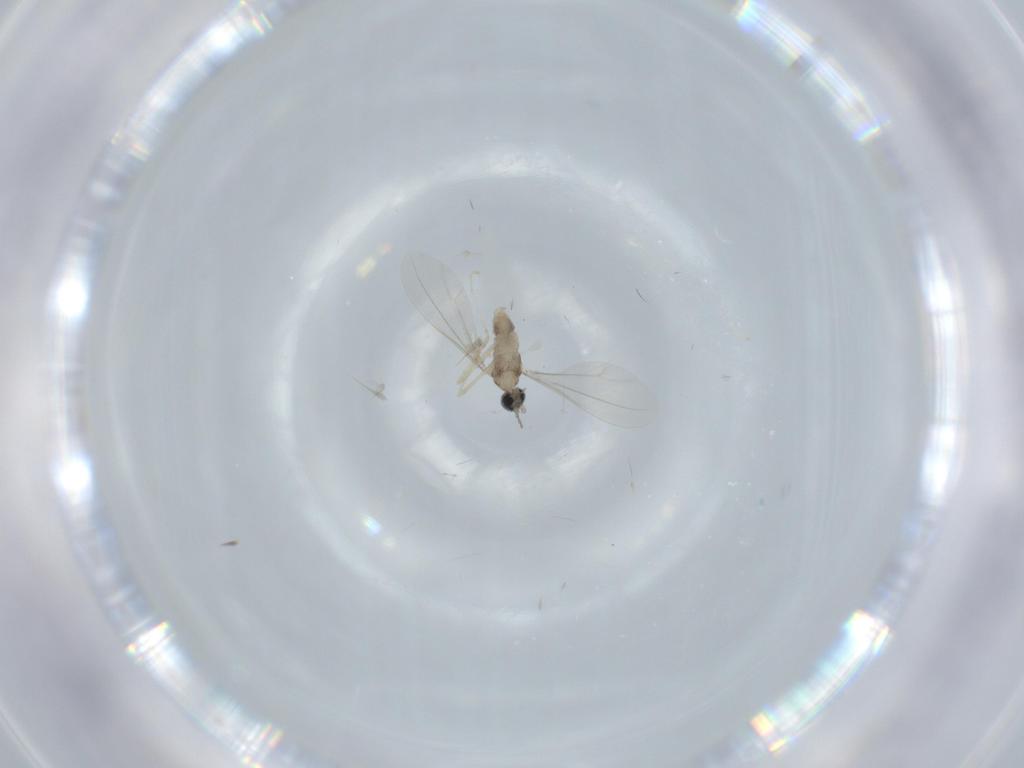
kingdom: Animalia
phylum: Arthropoda
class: Insecta
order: Diptera
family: Cecidomyiidae
